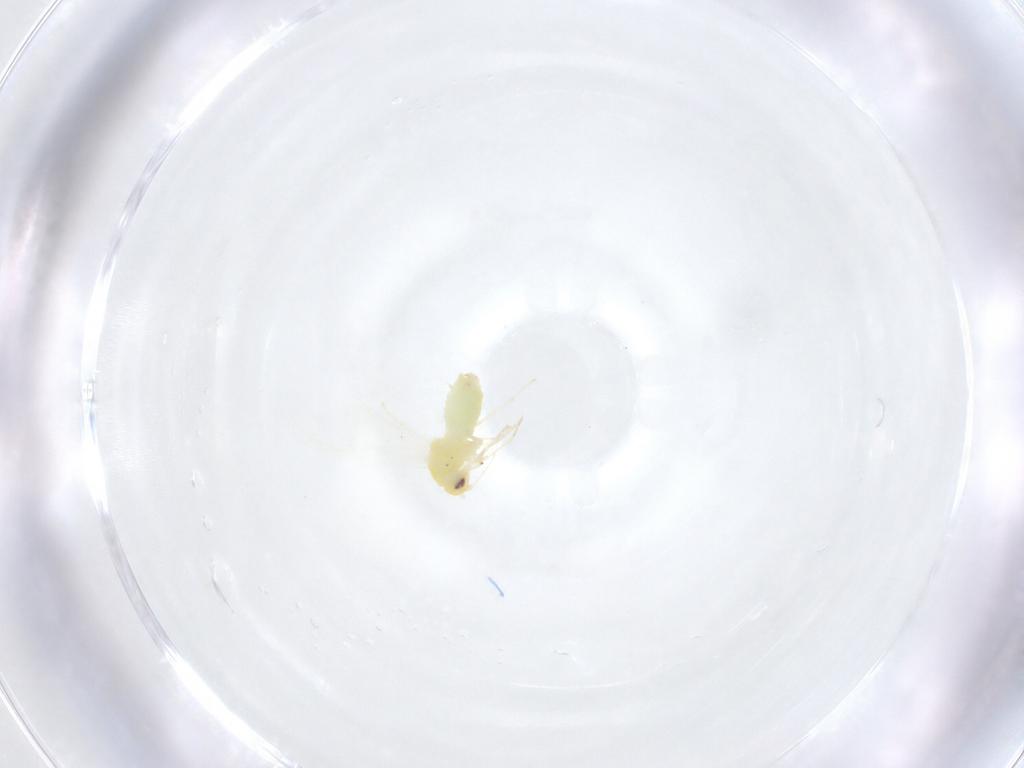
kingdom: Animalia
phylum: Arthropoda
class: Insecta
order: Hemiptera
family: Aleyrodidae
